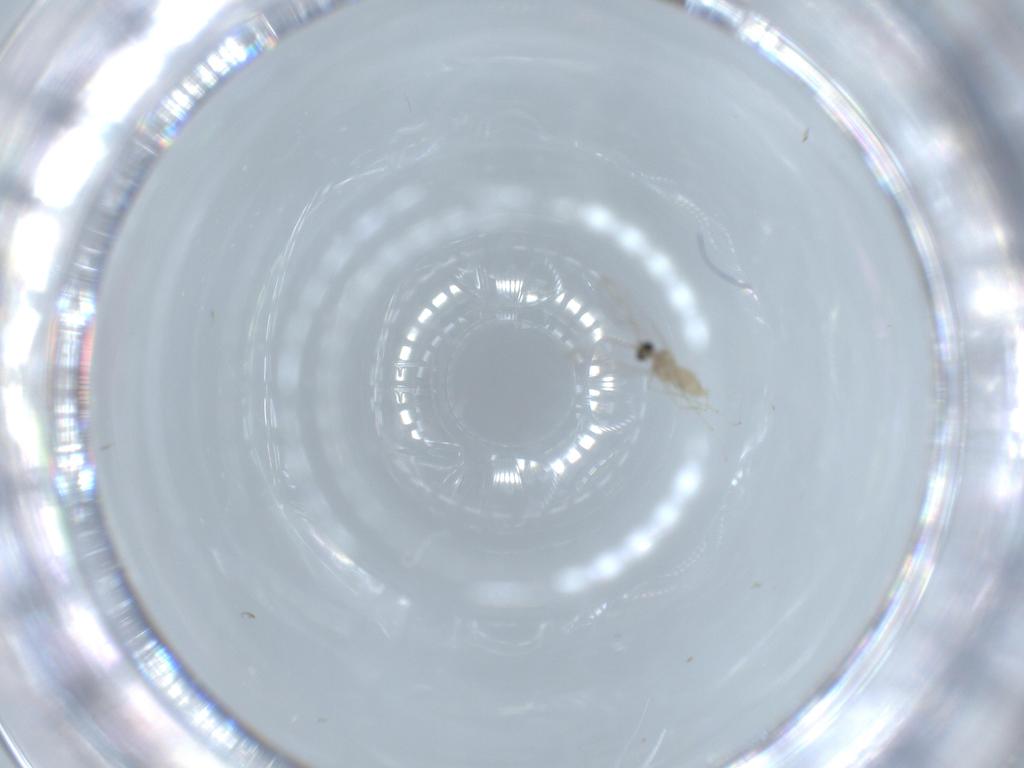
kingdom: Animalia
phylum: Arthropoda
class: Insecta
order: Diptera
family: Cecidomyiidae
